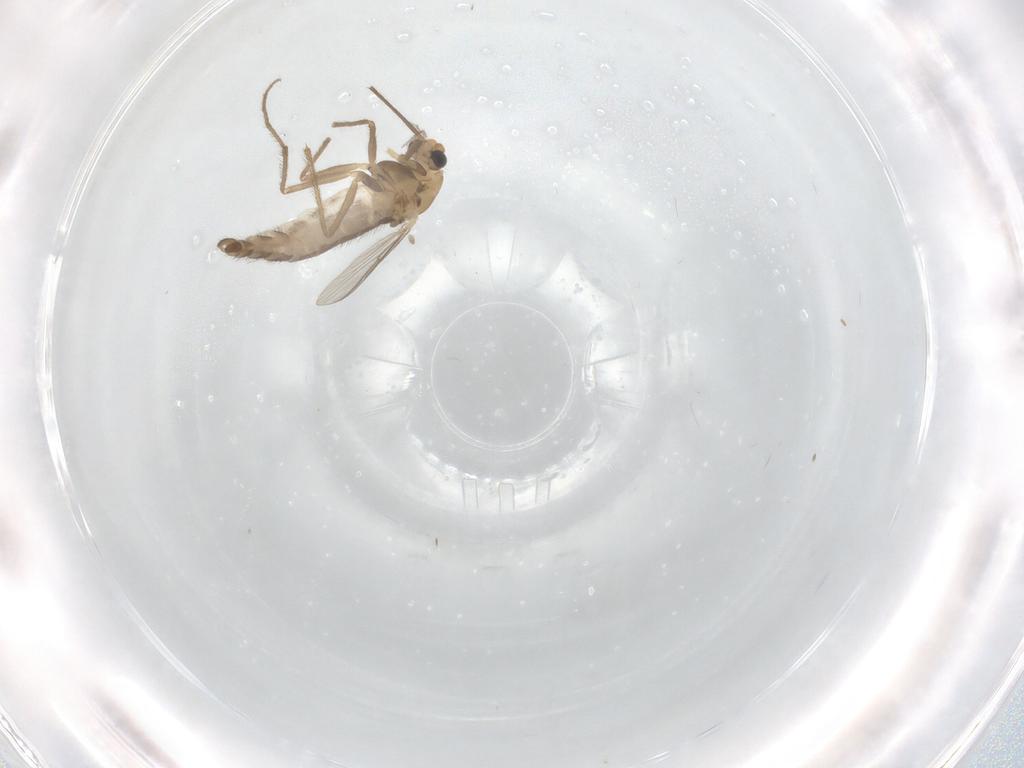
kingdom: Animalia
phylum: Arthropoda
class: Insecta
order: Diptera
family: Chironomidae
